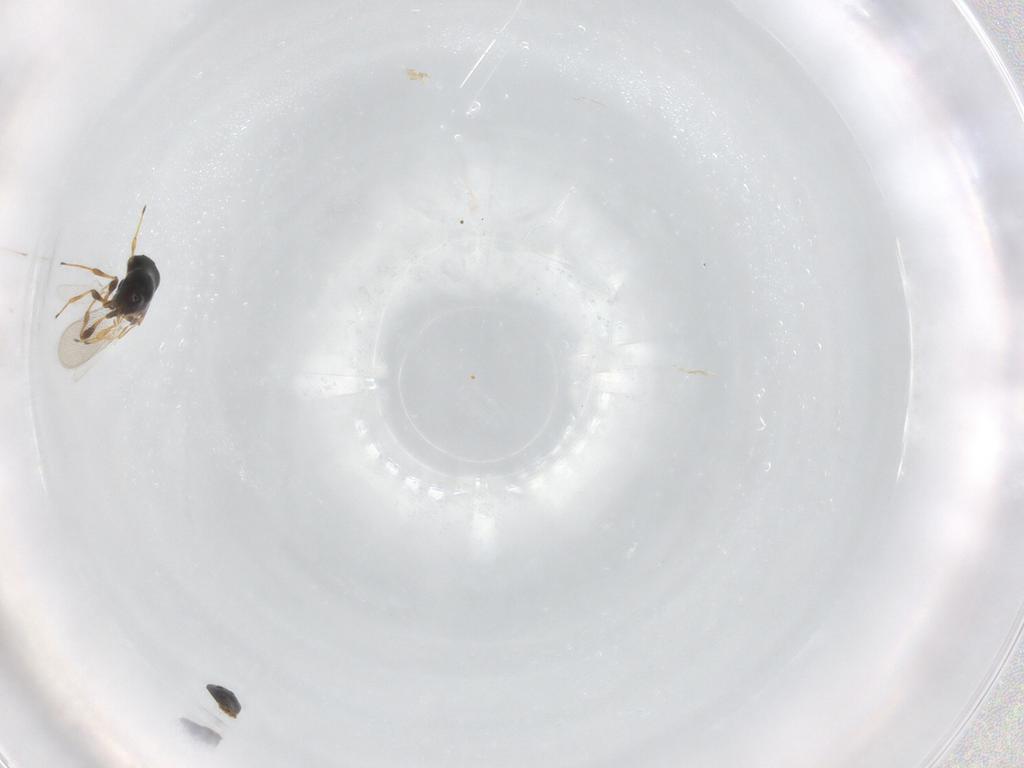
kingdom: Animalia
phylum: Arthropoda
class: Insecta
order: Hymenoptera
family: Platygastridae
